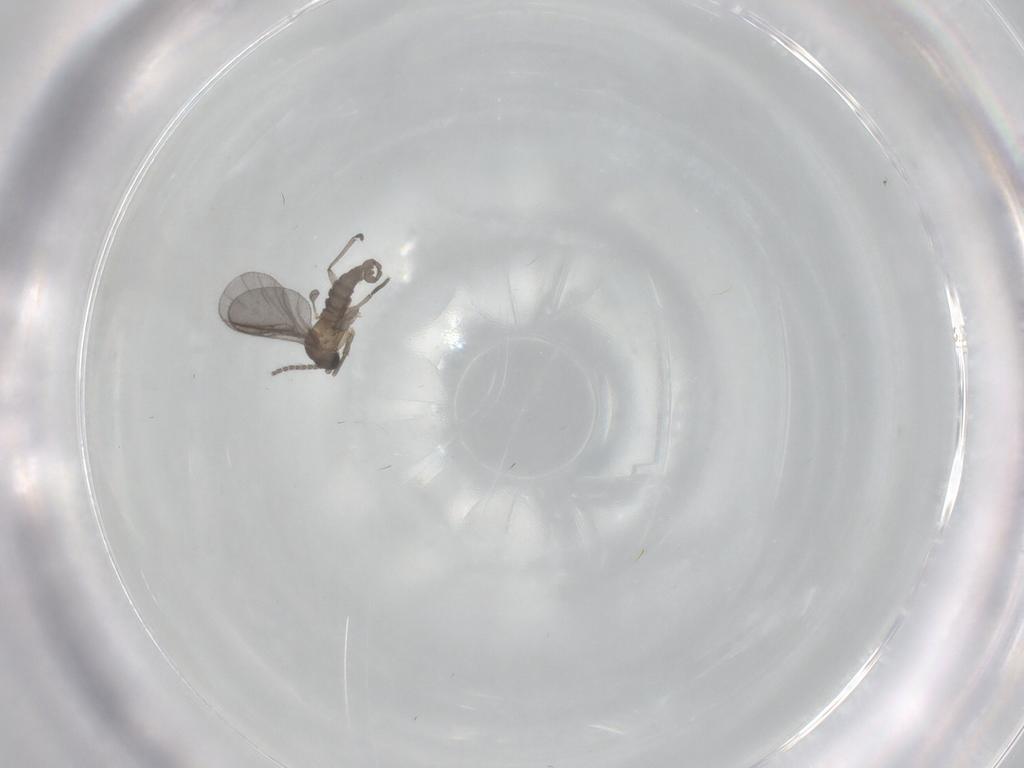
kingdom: Animalia
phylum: Arthropoda
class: Insecta
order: Diptera
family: Sciaridae
